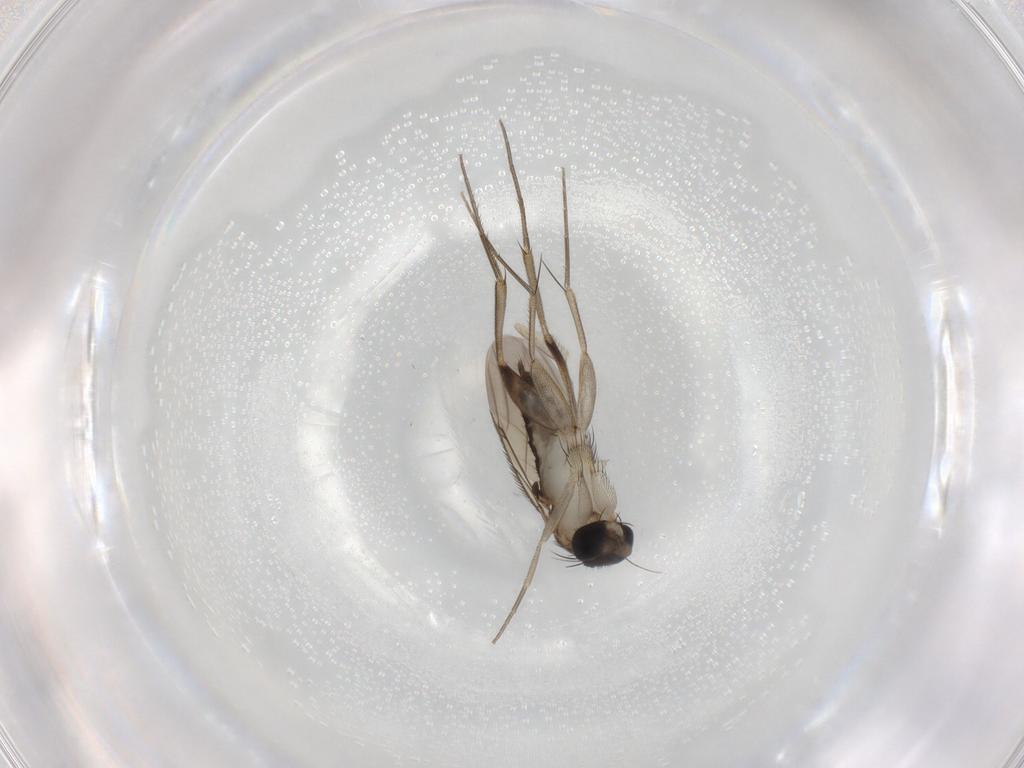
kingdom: Animalia
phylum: Arthropoda
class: Insecta
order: Diptera
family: Phoridae
